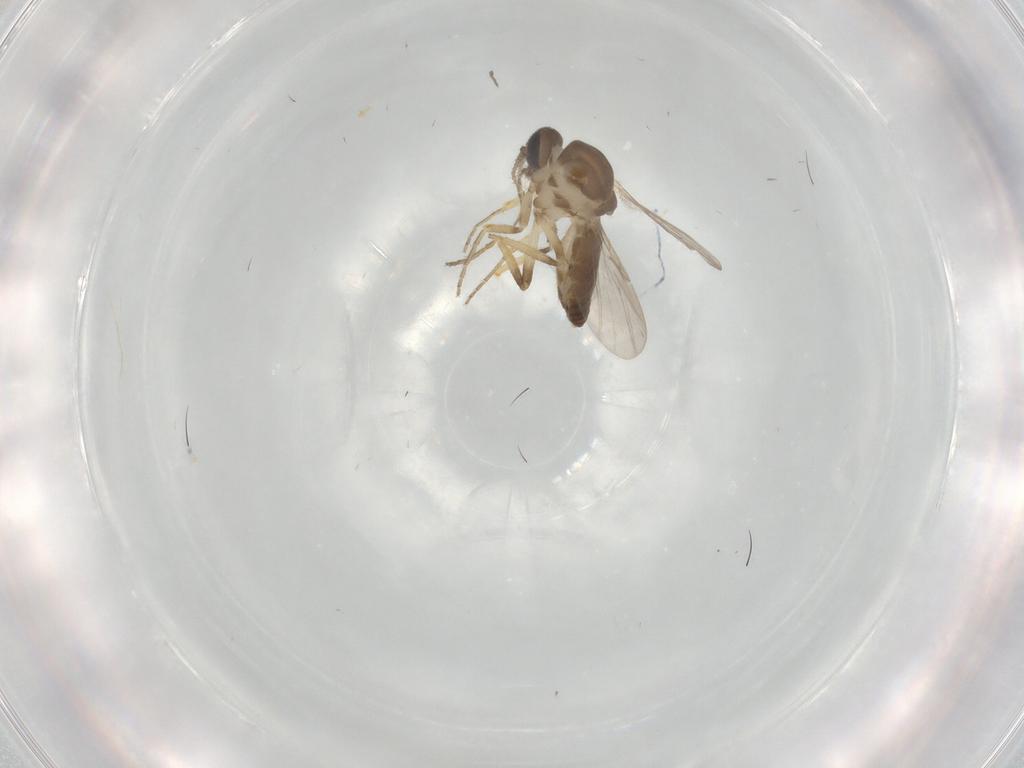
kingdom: Animalia
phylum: Arthropoda
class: Insecta
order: Diptera
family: Ceratopogonidae
